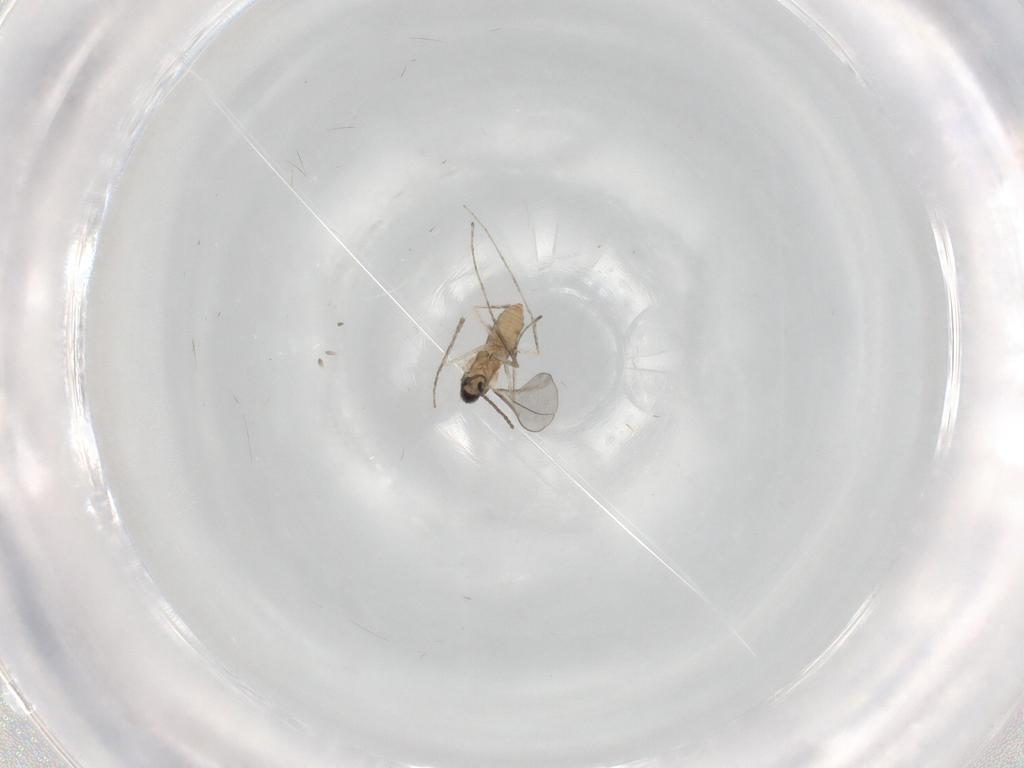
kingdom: Animalia
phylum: Arthropoda
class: Insecta
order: Diptera
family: Cecidomyiidae
